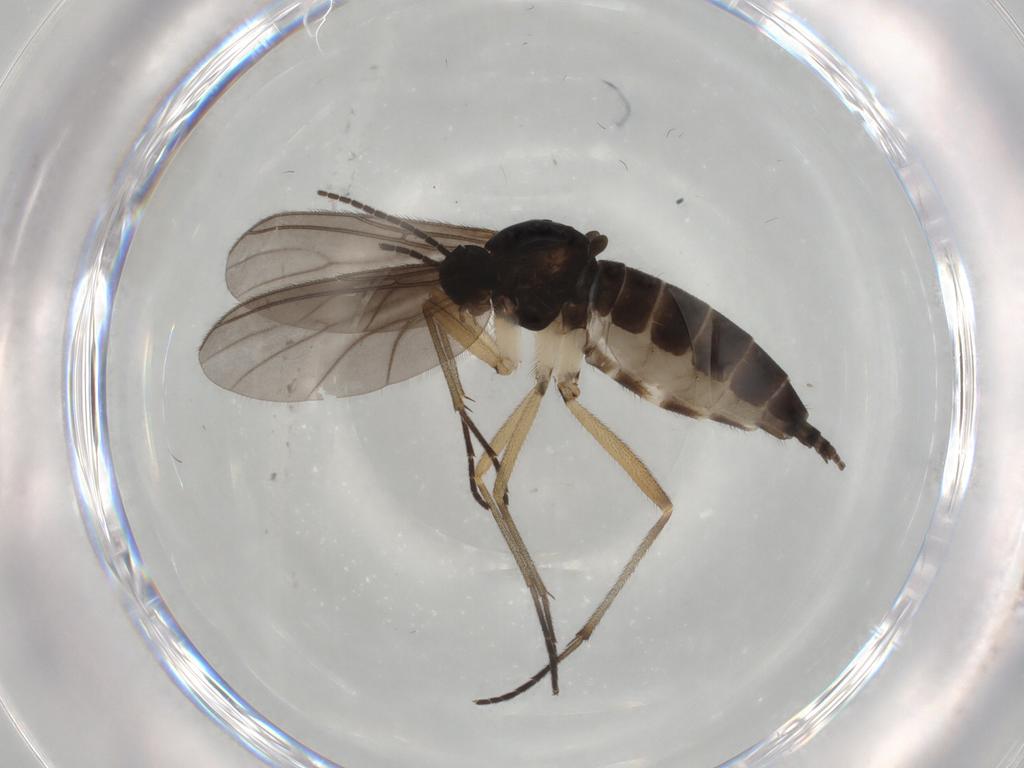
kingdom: Animalia
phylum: Arthropoda
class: Insecta
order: Diptera
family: Sciaridae
